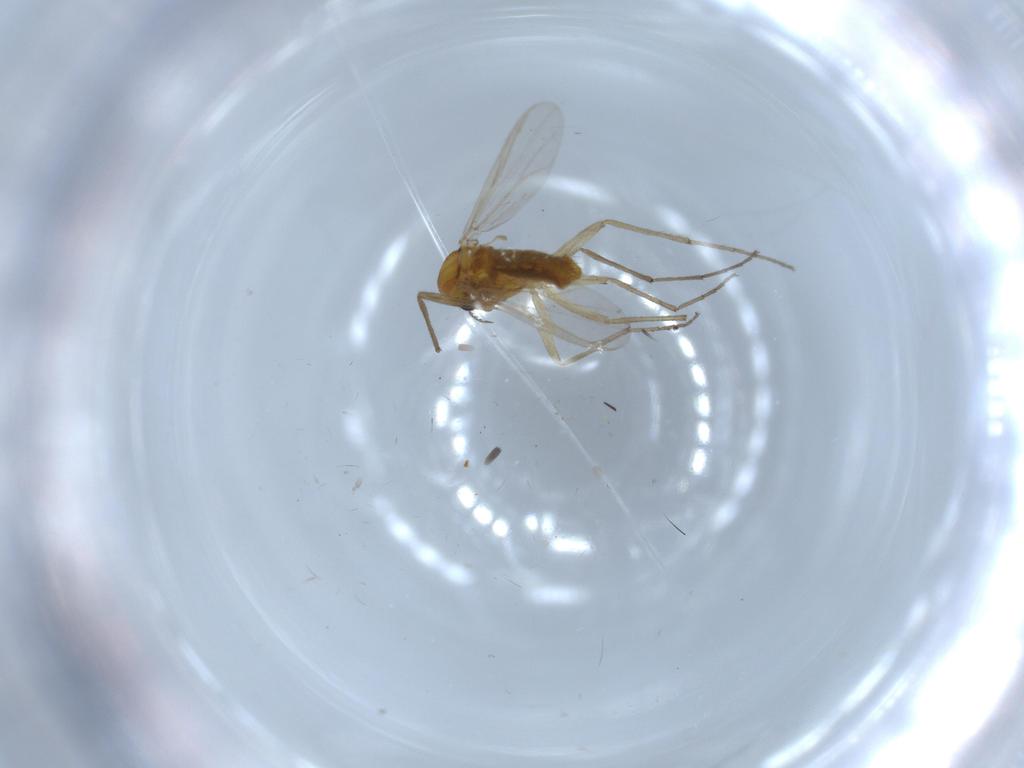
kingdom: Animalia
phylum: Arthropoda
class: Insecta
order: Diptera
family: Chironomidae
